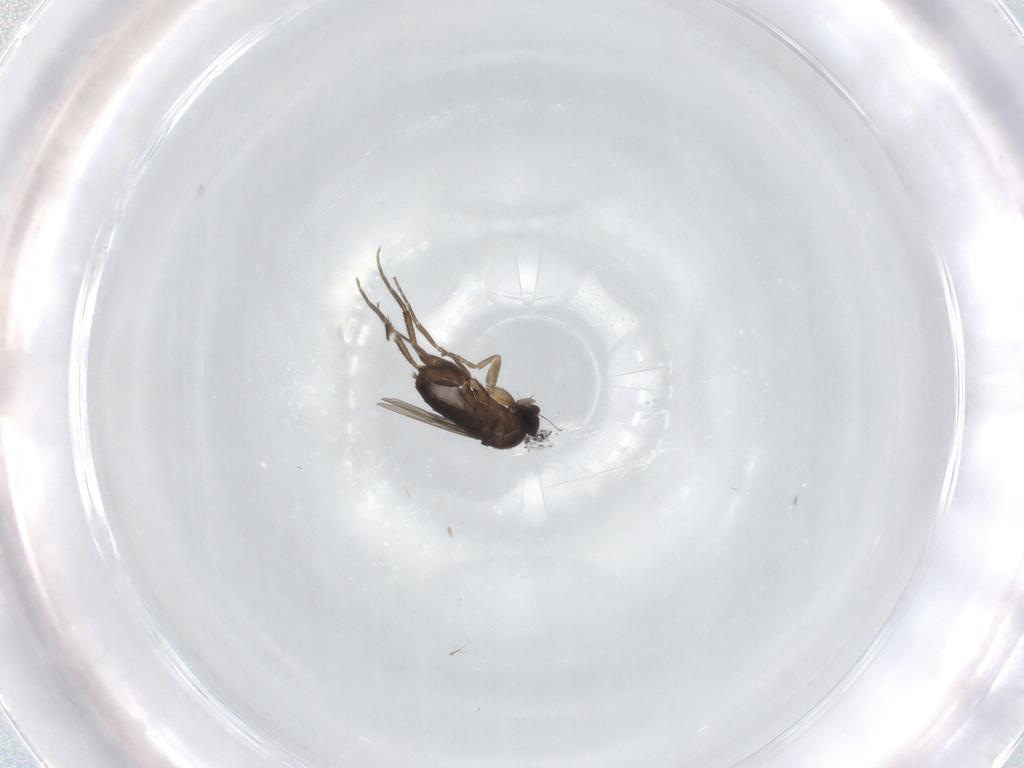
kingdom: Animalia
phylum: Arthropoda
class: Insecta
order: Diptera
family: Phoridae
